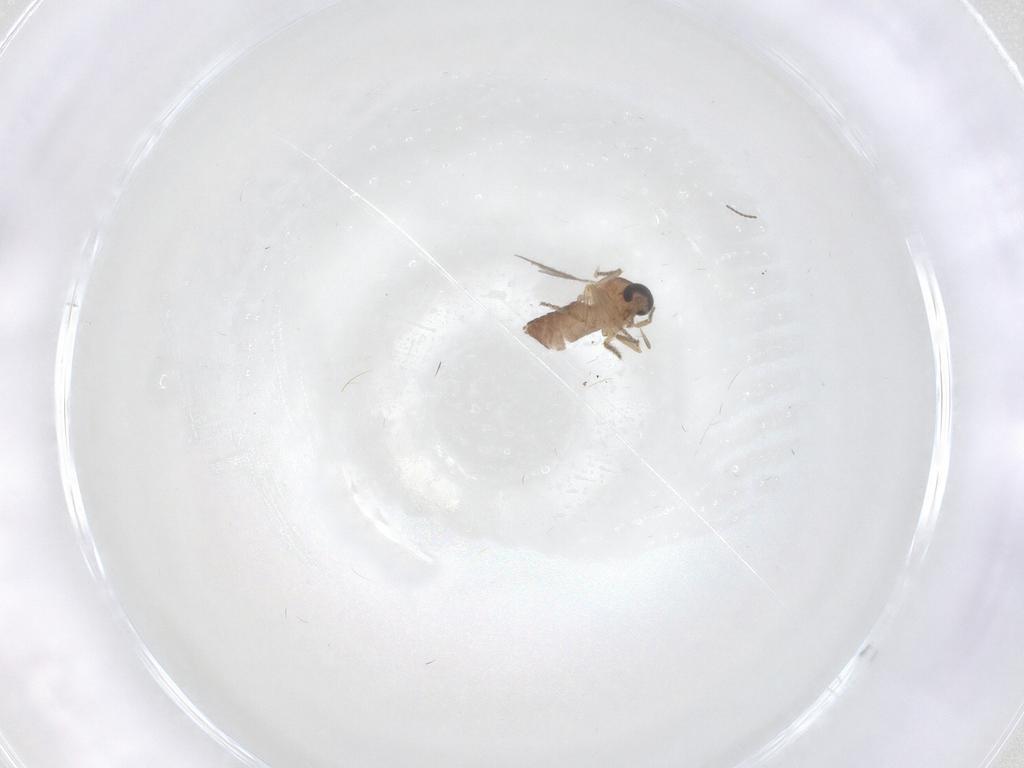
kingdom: Animalia
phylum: Arthropoda
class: Insecta
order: Diptera
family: Ceratopogonidae
